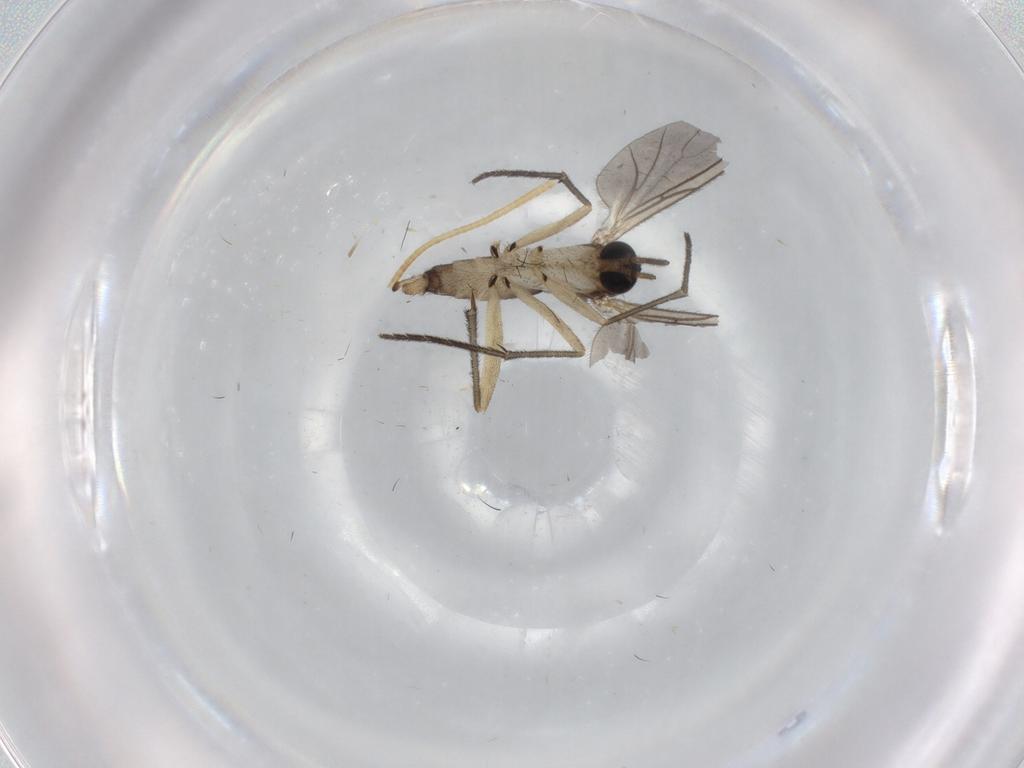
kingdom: Animalia
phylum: Arthropoda
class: Insecta
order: Diptera
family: Sciaridae
